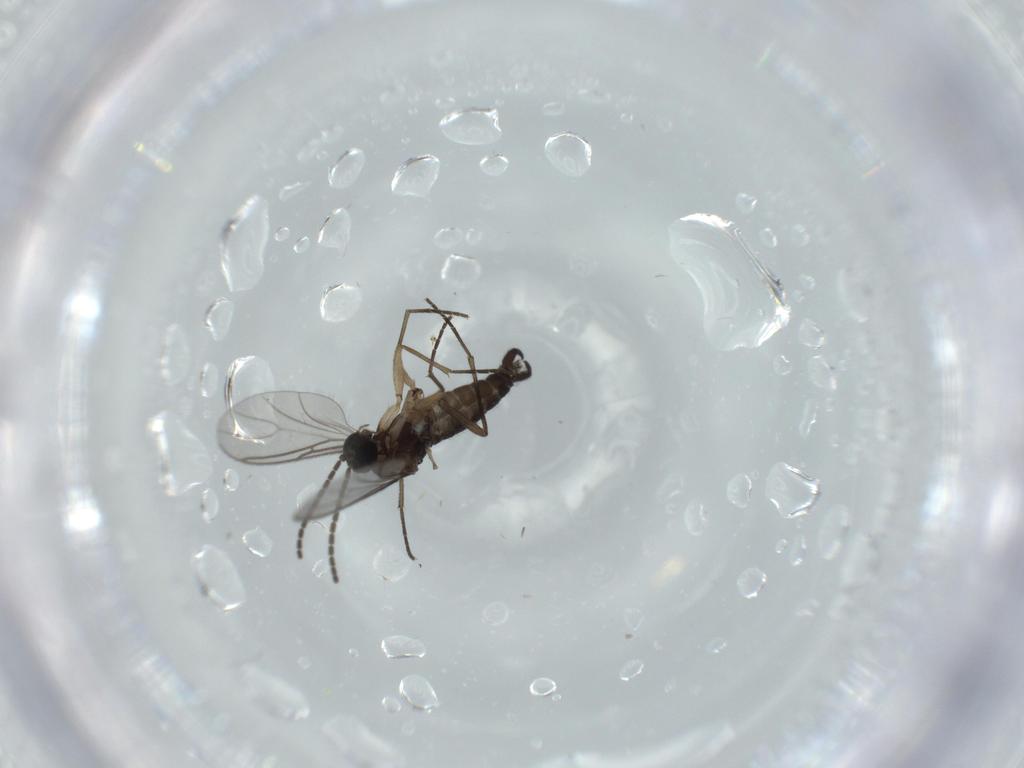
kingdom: Animalia
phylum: Arthropoda
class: Insecta
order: Diptera
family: Sciaridae
